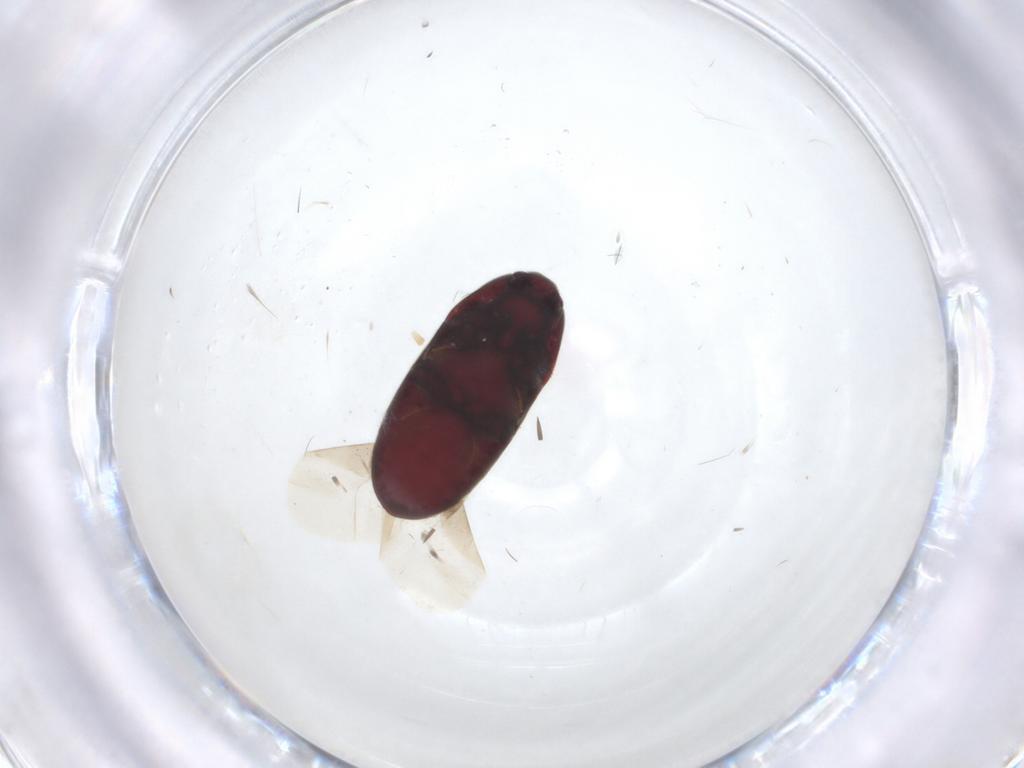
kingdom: Animalia
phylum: Arthropoda
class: Insecta
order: Coleoptera
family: Throscidae
